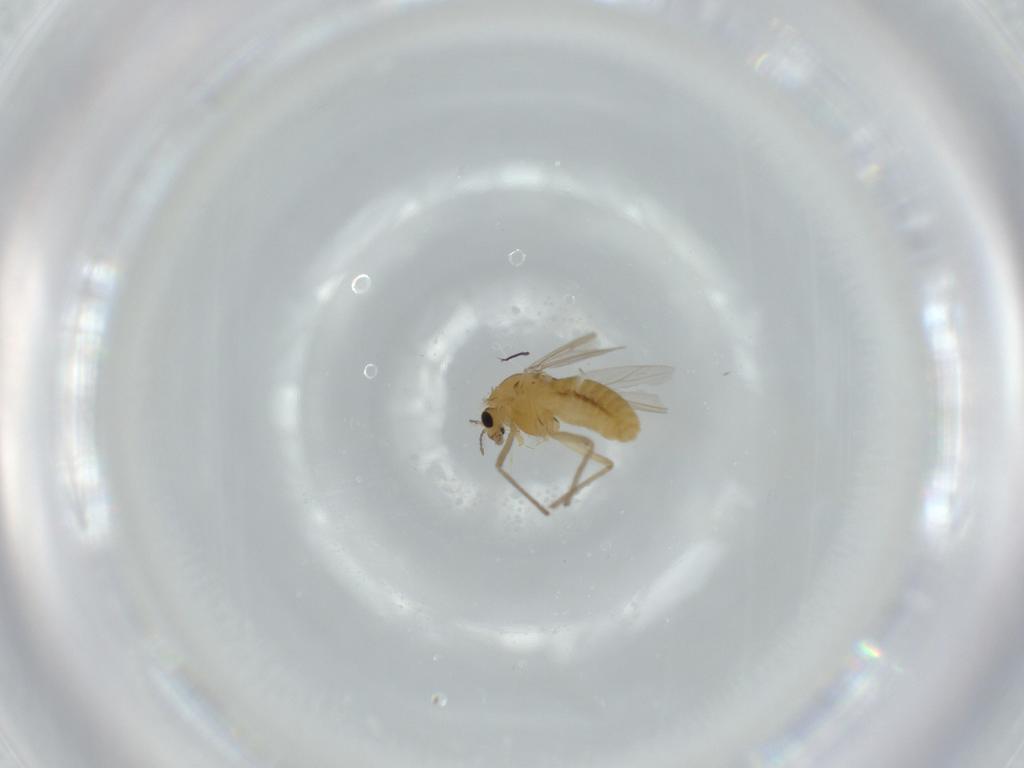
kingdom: Animalia
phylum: Arthropoda
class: Insecta
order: Diptera
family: Chironomidae
